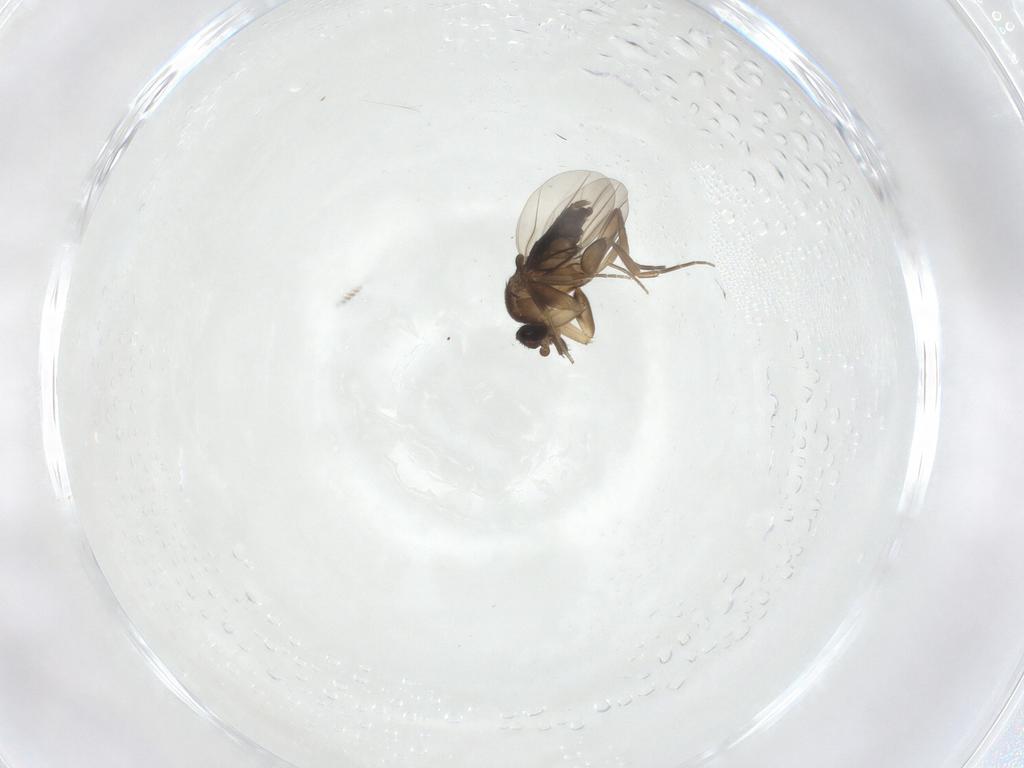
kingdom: Animalia
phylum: Arthropoda
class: Insecta
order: Diptera
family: Phoridae
